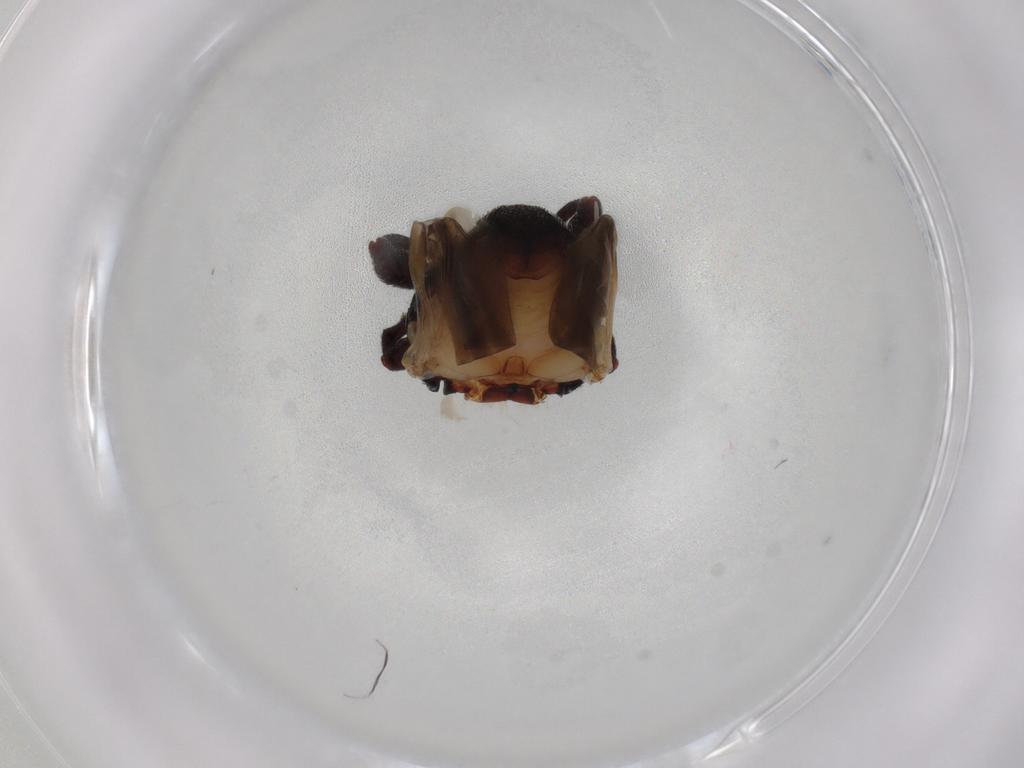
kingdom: Animalia
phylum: Arthropoda
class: Insecta
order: Coleoptera
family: Curculionidae
